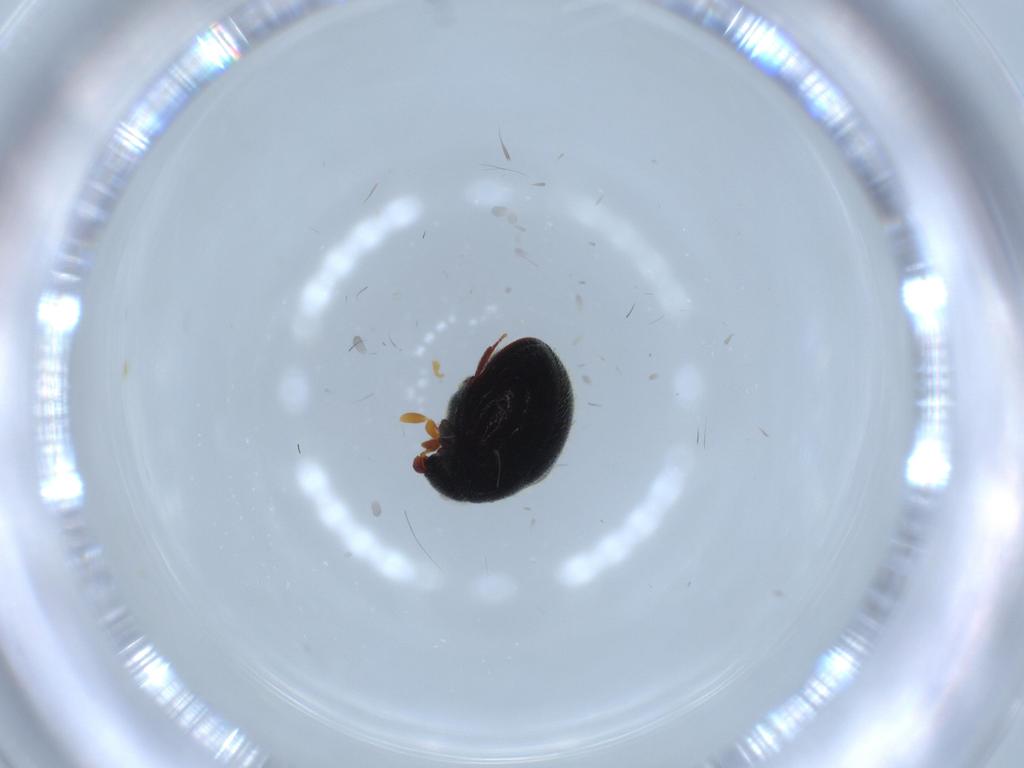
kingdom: Animalia
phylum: Arthropoda
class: Insecta
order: Coleoptera
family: Ptinidae
